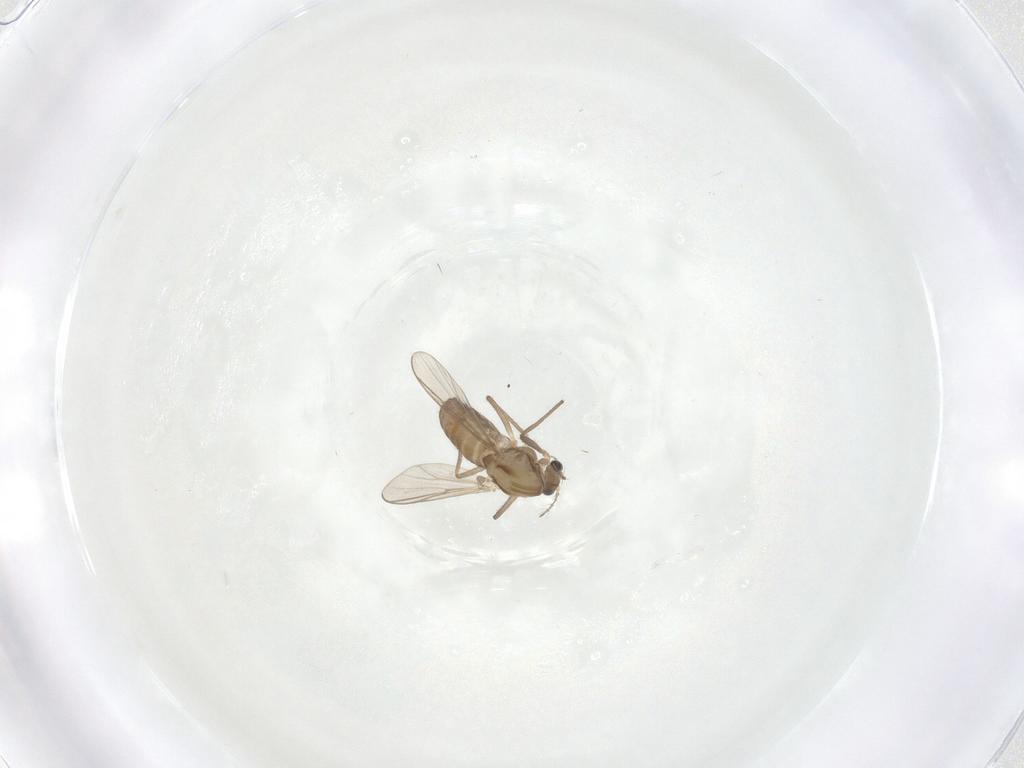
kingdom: Animalia
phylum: Arthropoda
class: Insecta
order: Diptera
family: Chironomidae
